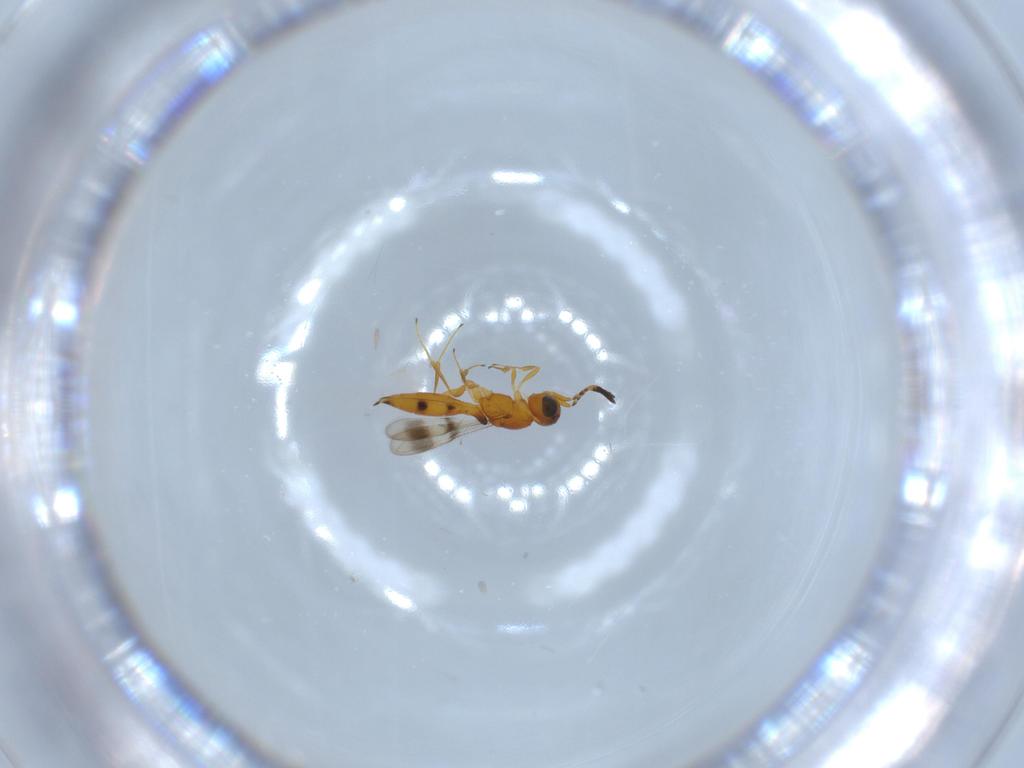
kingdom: Animalia
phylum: Arthropoda
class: Insecta
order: Hymenoptera
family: Scelionidae
